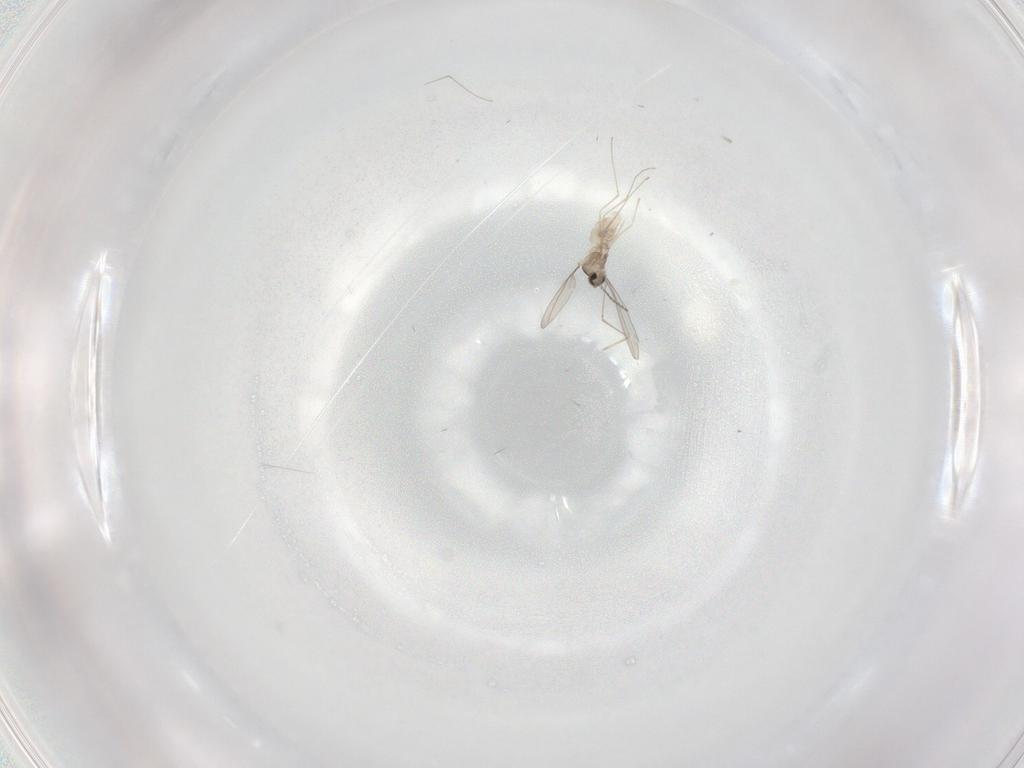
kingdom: Animalia
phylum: Arthropoda
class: Insecta
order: Diptera
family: Cecidomyiidae
